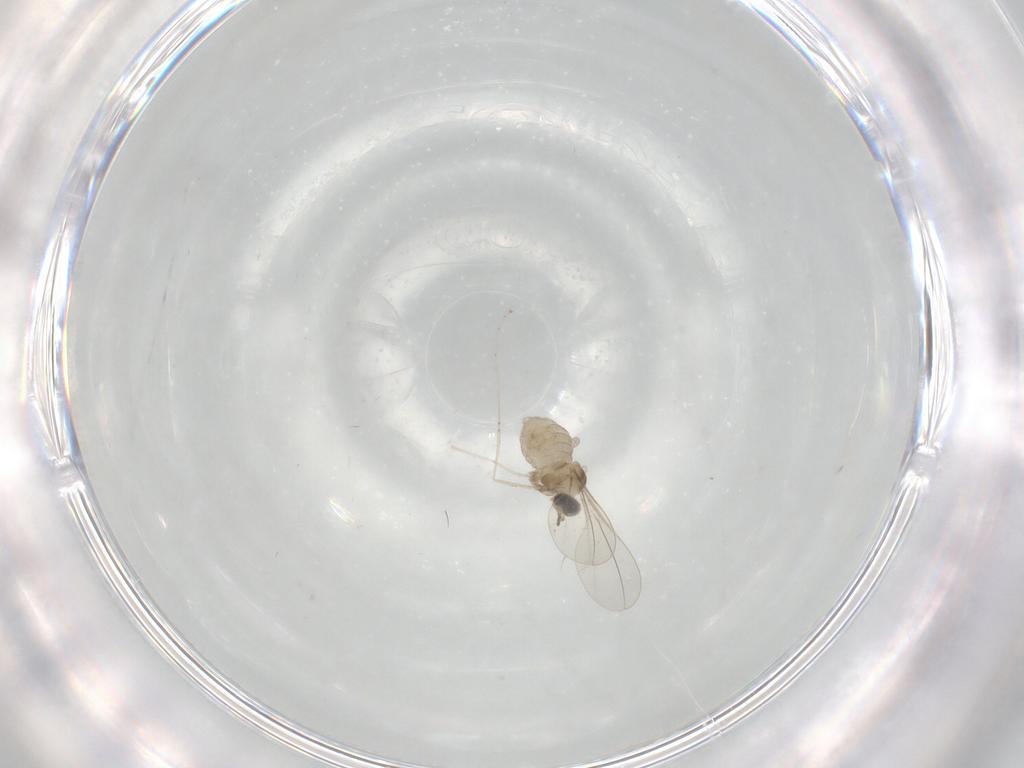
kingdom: Animalia
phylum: Arthropoda
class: Insecta
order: Diptera
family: Cecidomyiidae
